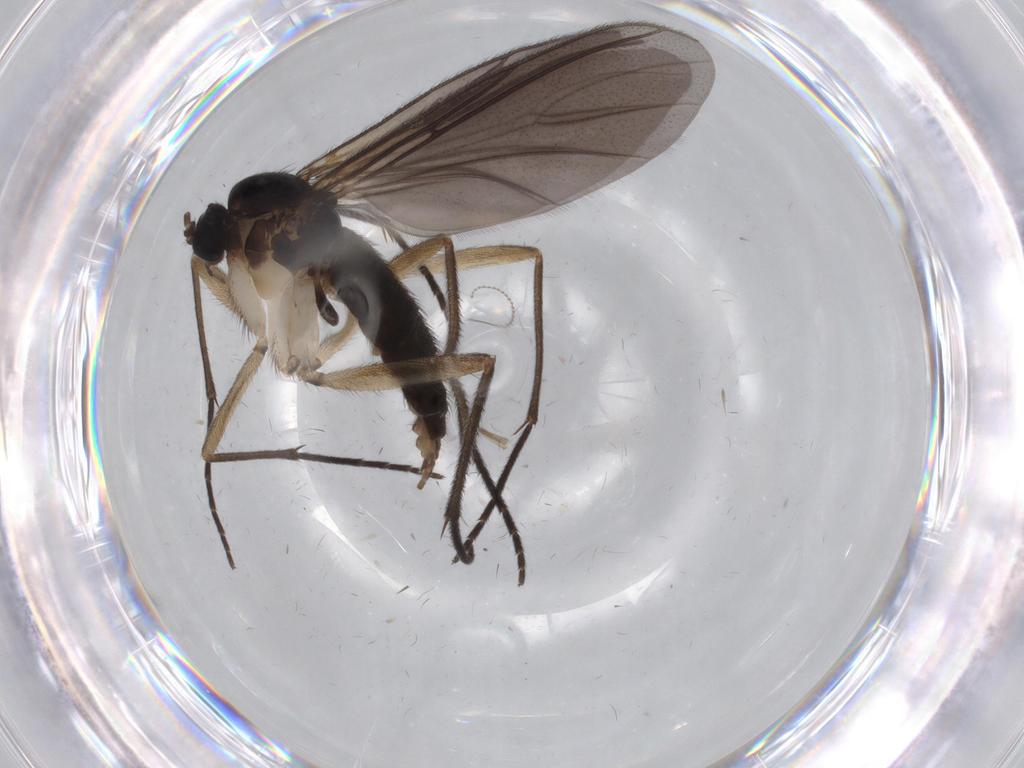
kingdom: Animalia
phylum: Arthropoda
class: Insecta
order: Diptera
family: Sciaridae
